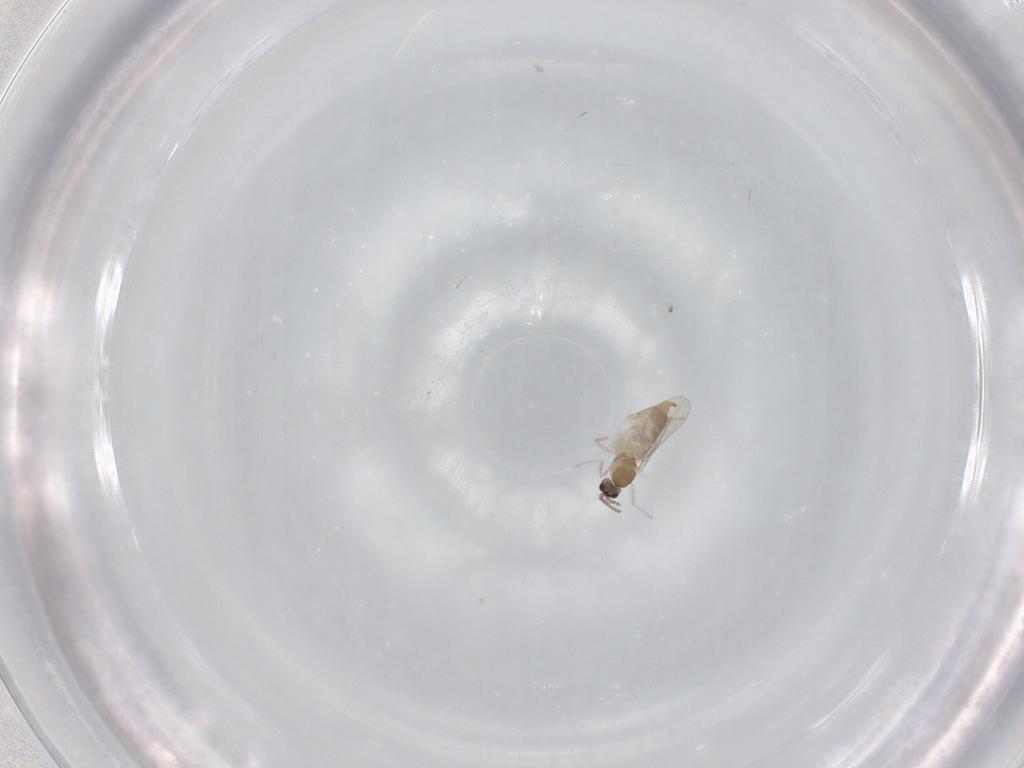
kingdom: Animalia
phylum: Arthropoda
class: Insecta
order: Diptera
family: Cecidomyiidae
